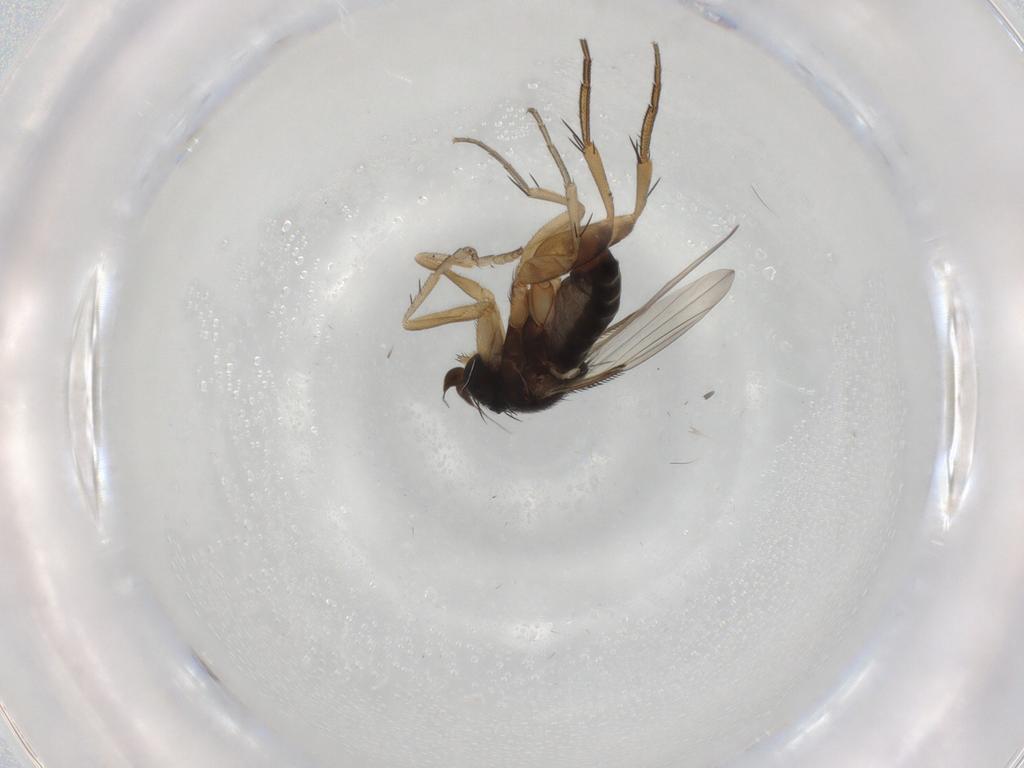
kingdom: Animalia
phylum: Arthropoda
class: Insecta
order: Diptera
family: Phoridae
